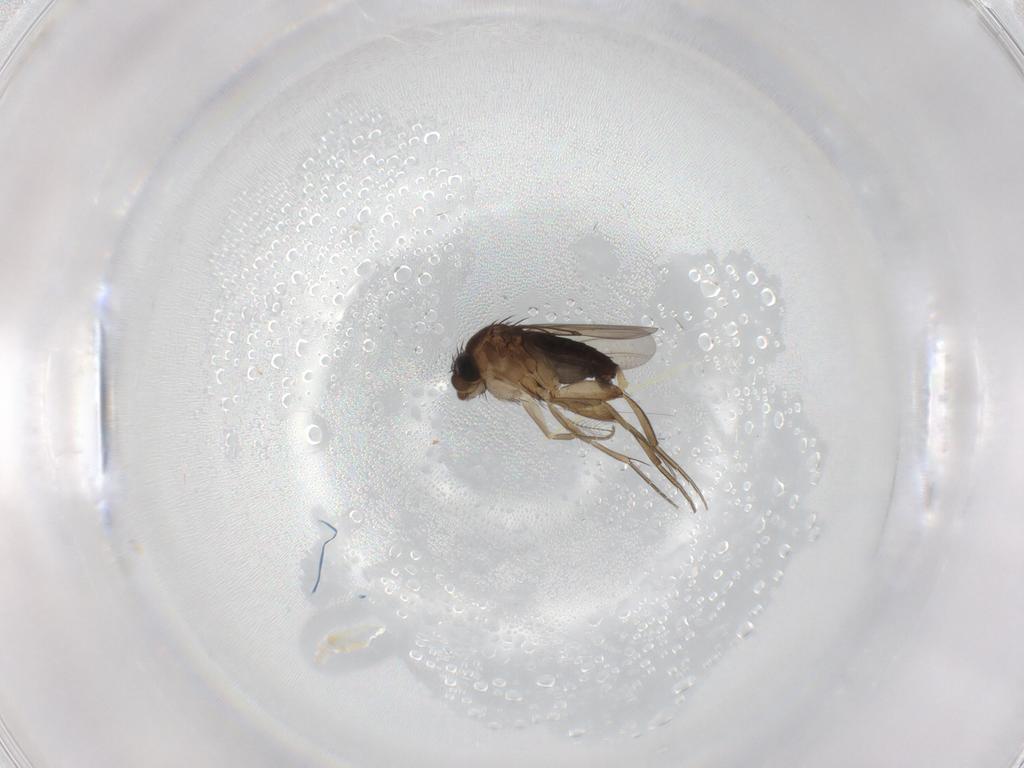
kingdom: Animalia
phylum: Arthropoda
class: Insecta
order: Diptera
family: Phoridae
